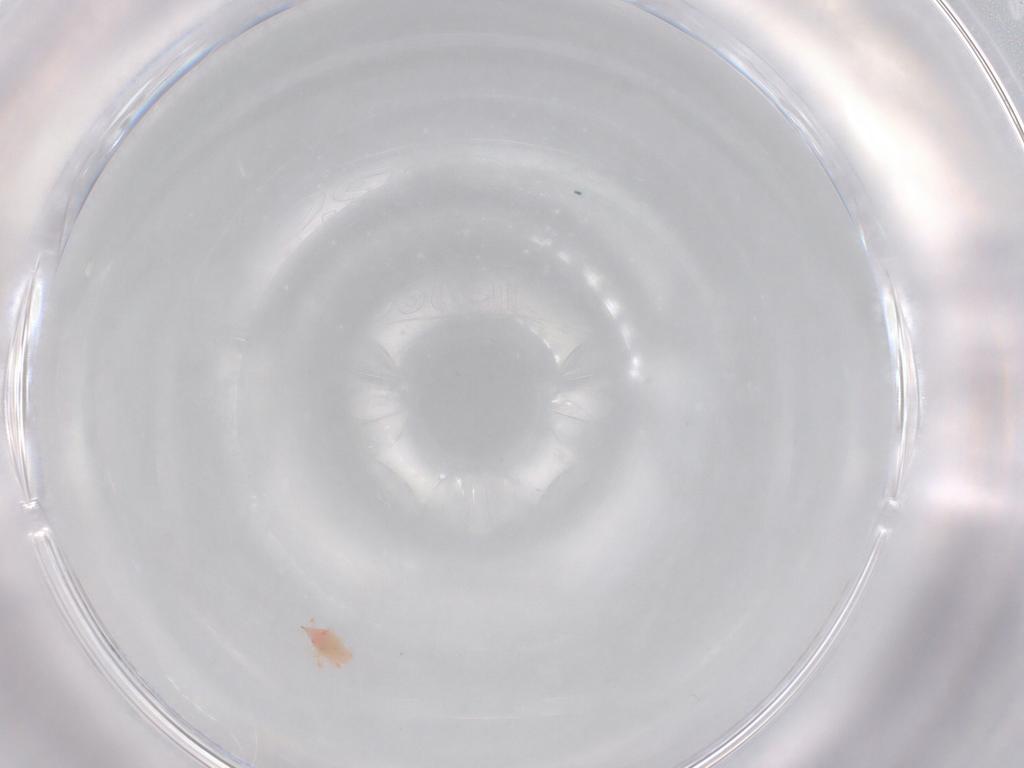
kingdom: Animalia
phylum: Arthropoda
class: Arachnida
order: Trombidiformes
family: Bdellidae
